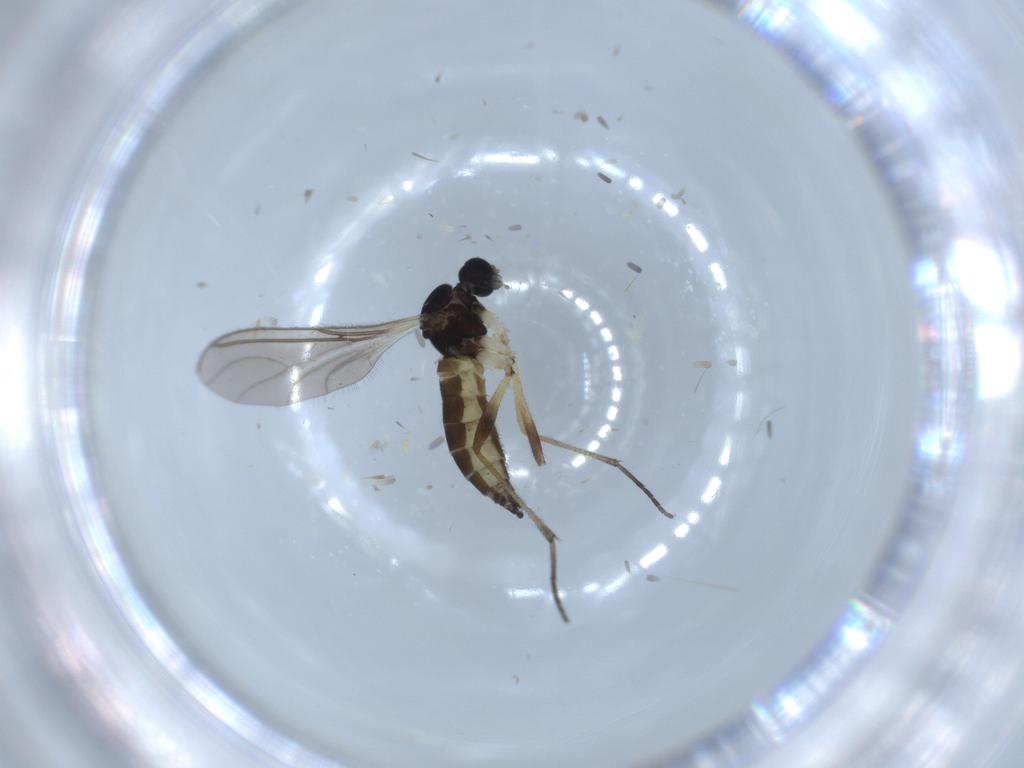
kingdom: Animalia
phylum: Arthropoda
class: Insecta
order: Diptera
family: Sciaridae
